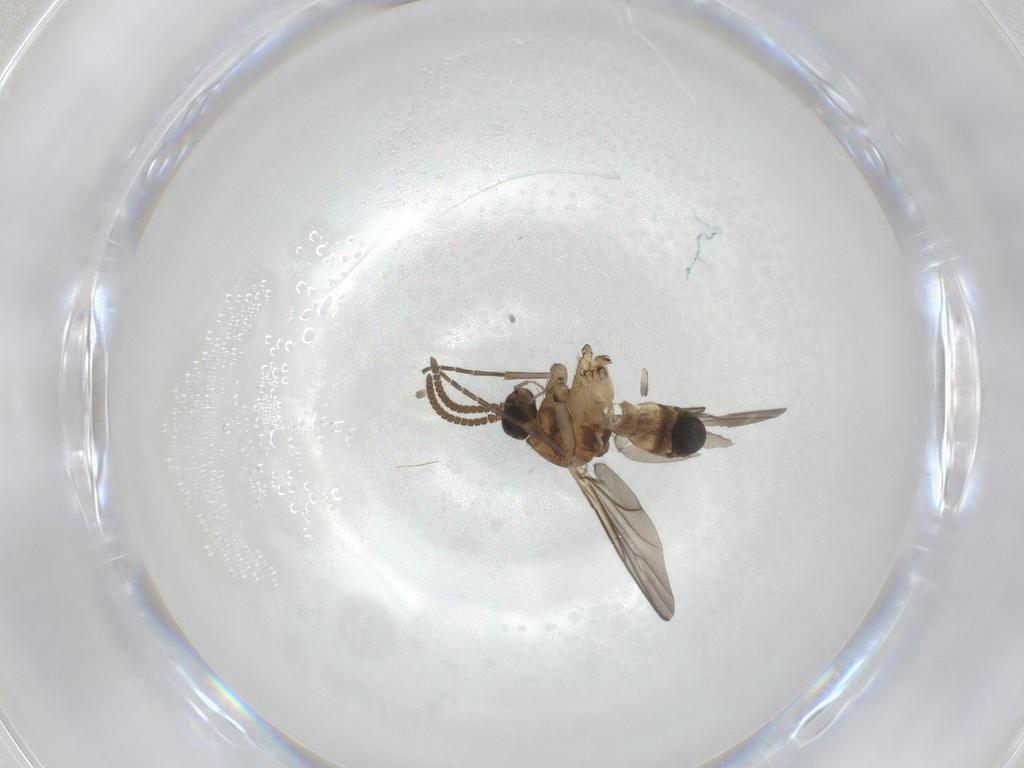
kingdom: Animalia
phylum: Arthropoda
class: Insecta
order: Diptera
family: Mycetophilidae
